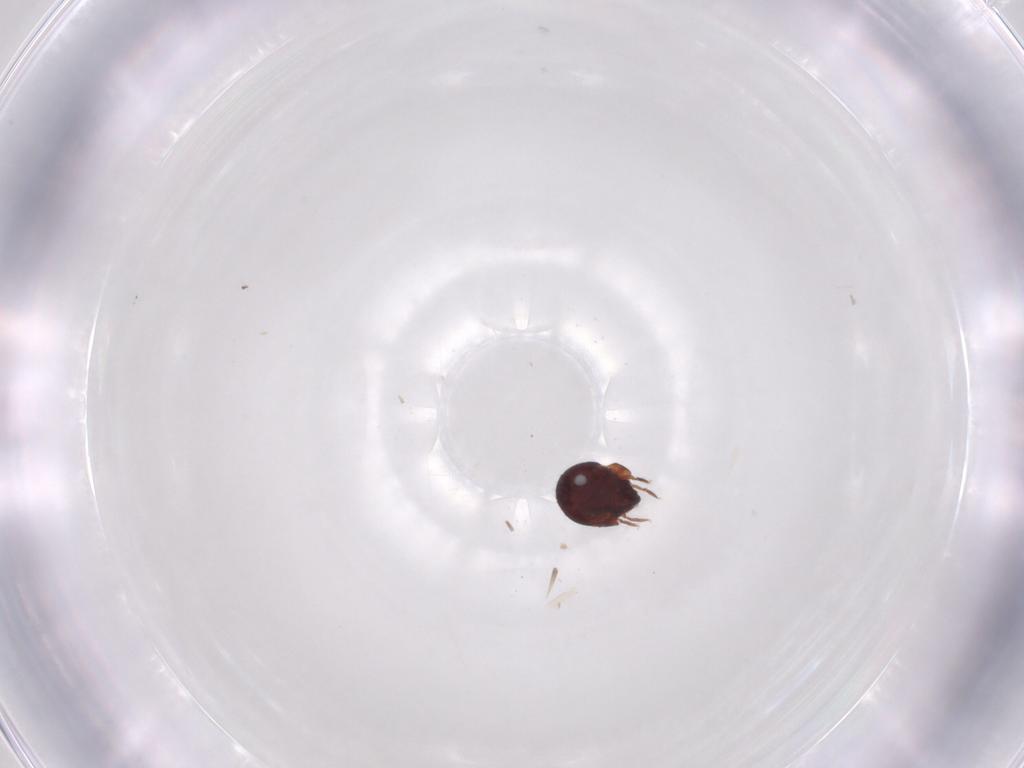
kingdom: Animalia
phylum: Arthropoda
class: Arachnida
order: Sarcoptiformes
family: Humerobatidae
